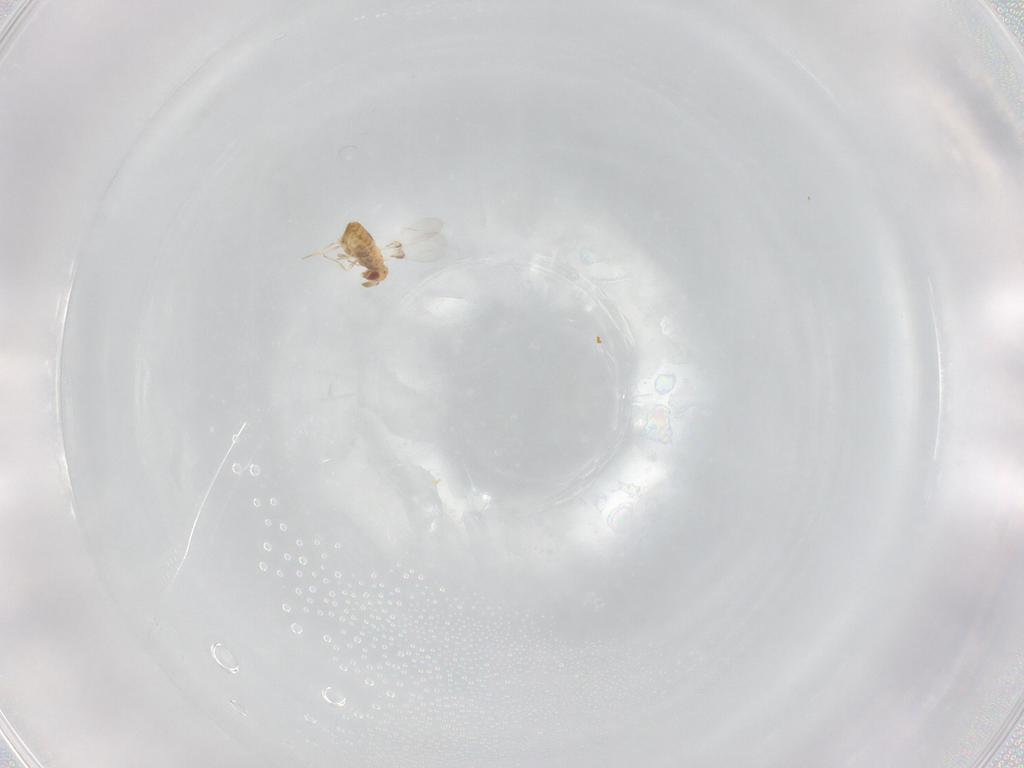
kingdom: Animalia
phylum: Arthropoda
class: Insecta
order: Hymenoptera
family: Trichogrammatidae
